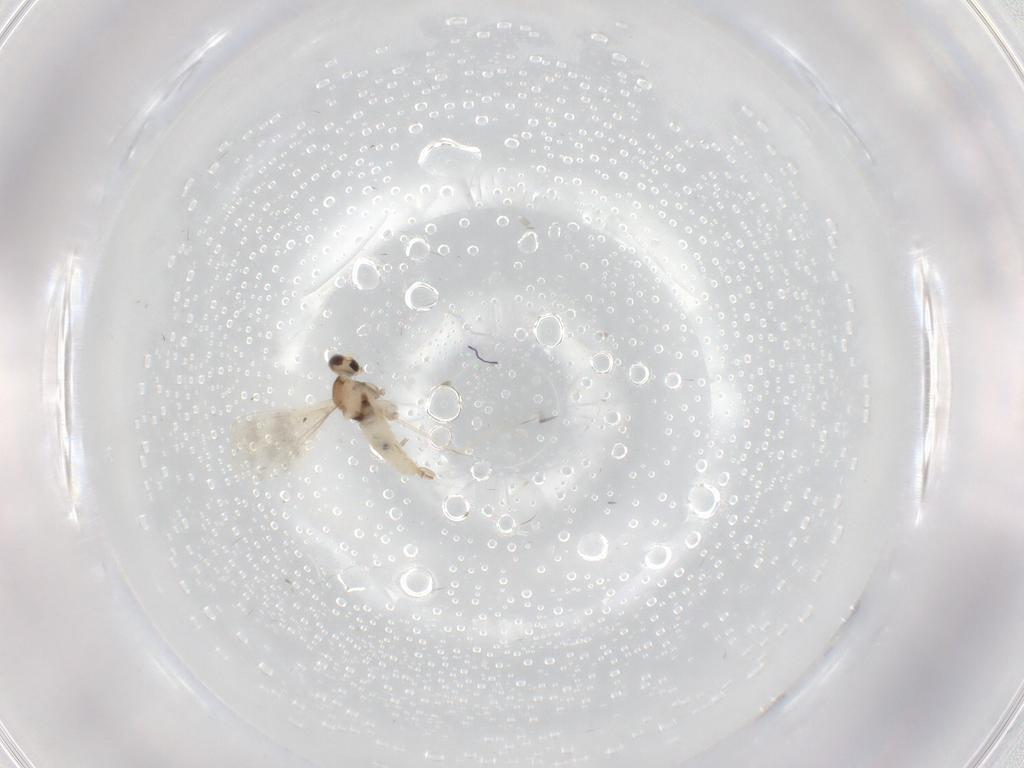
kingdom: Animalia
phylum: Arthropoda
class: Insecta
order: Diptera
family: Cecidomyiidae
